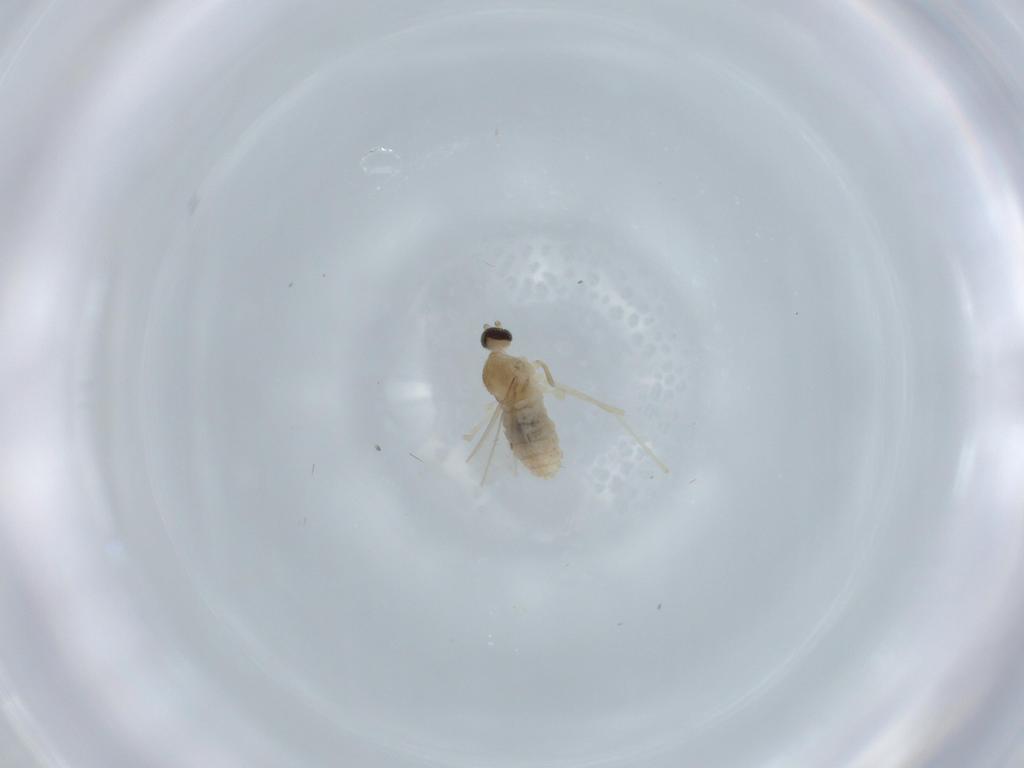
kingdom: Animalia
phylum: Arthropoda
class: Insecta
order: Diptera
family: Cecidomyiidae
